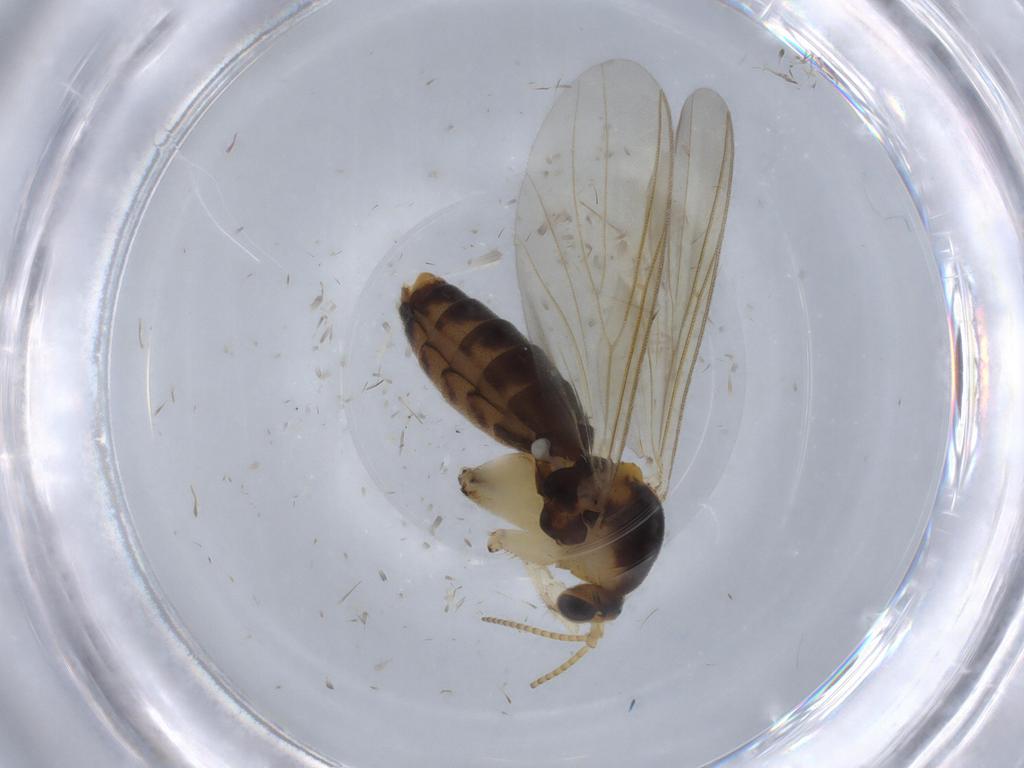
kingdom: Animalia
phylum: Arthropoda
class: Insecta
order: Diptera
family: Mycetophilidae
